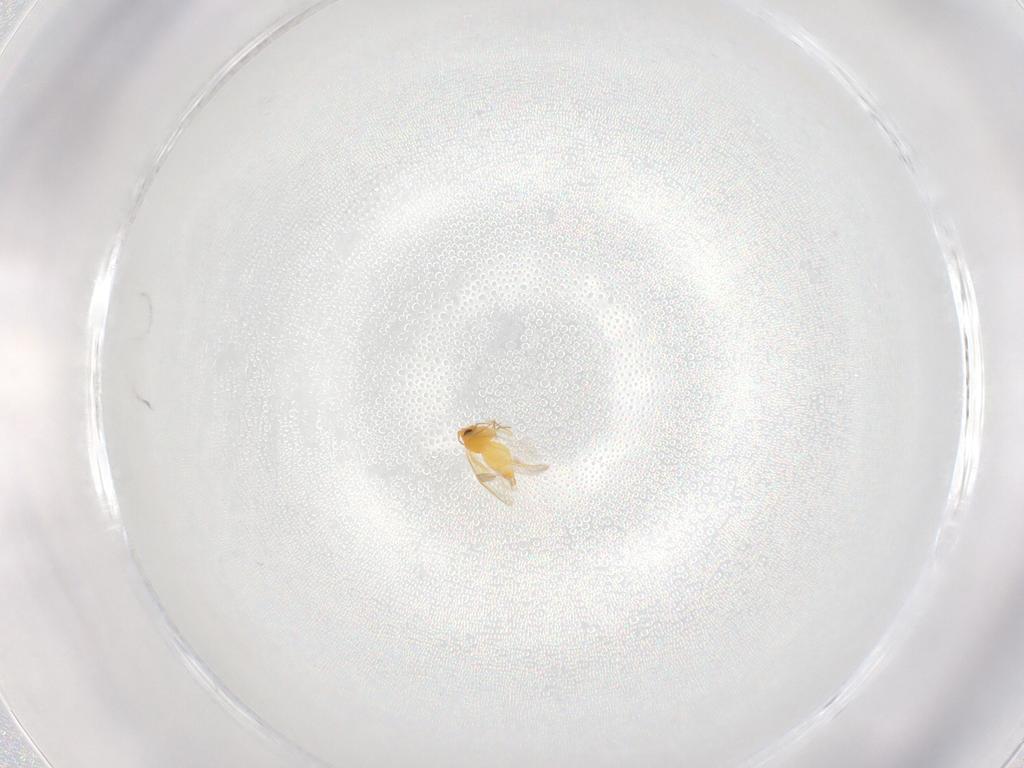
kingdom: Animalia
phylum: Arthropoda
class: Insecta
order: Hemiptera
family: Aleyrodidae
